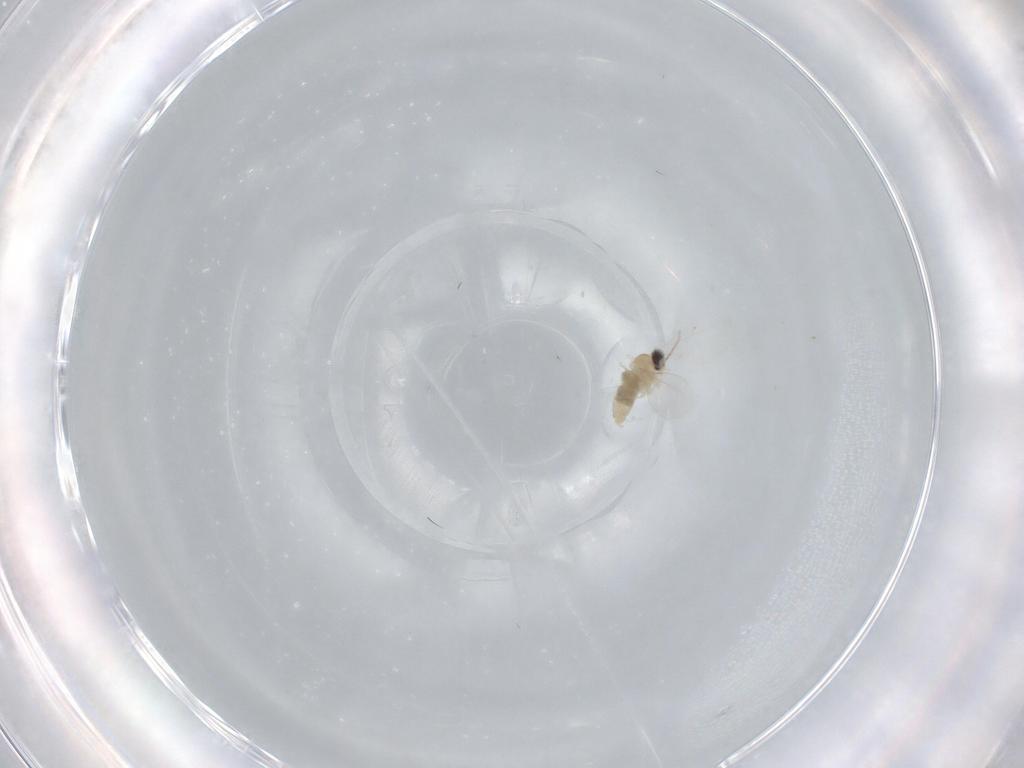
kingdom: Animalia
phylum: Arthropoda
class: Insecta
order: Diptera
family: Cecidomyiidae
